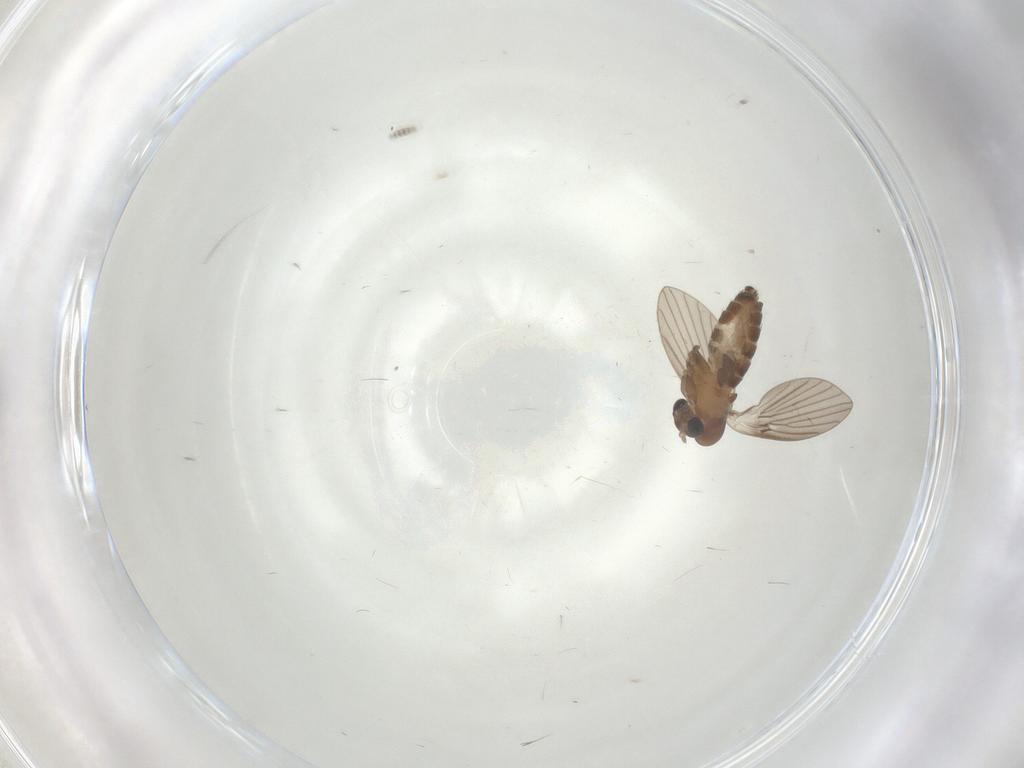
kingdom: Animalia
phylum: Arthropoda
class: Insecta
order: Diptera
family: Psychodidae
